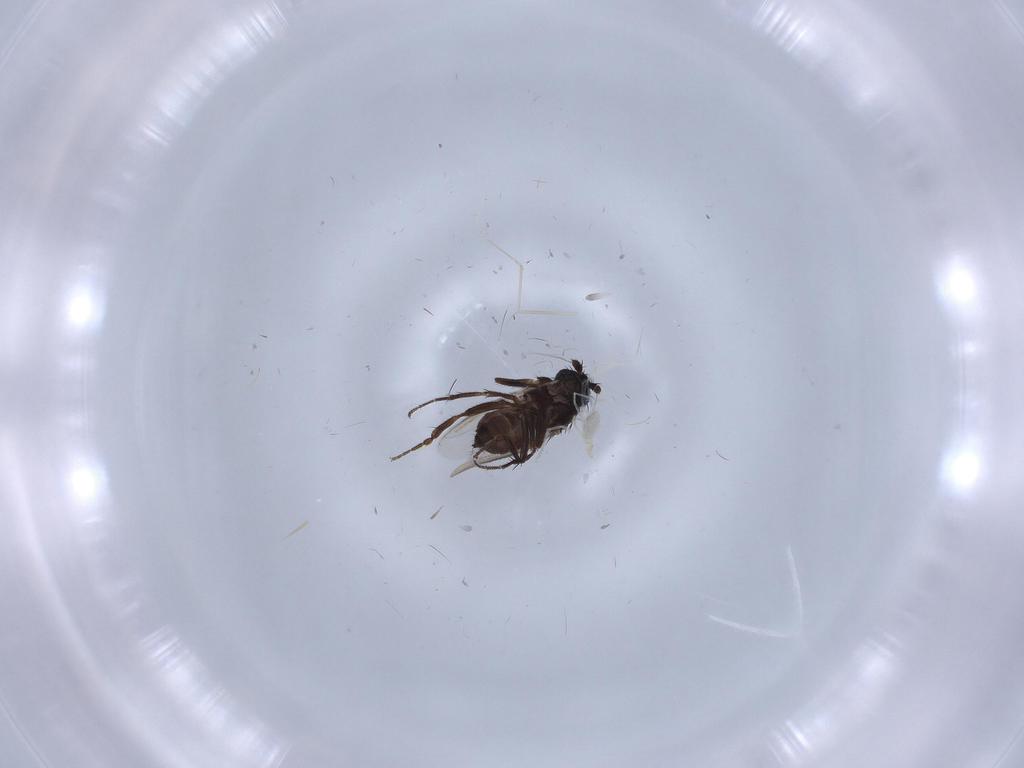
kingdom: Animalia
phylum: Arthropoda
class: Insecta
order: Diptera
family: Sphaeroceridae
